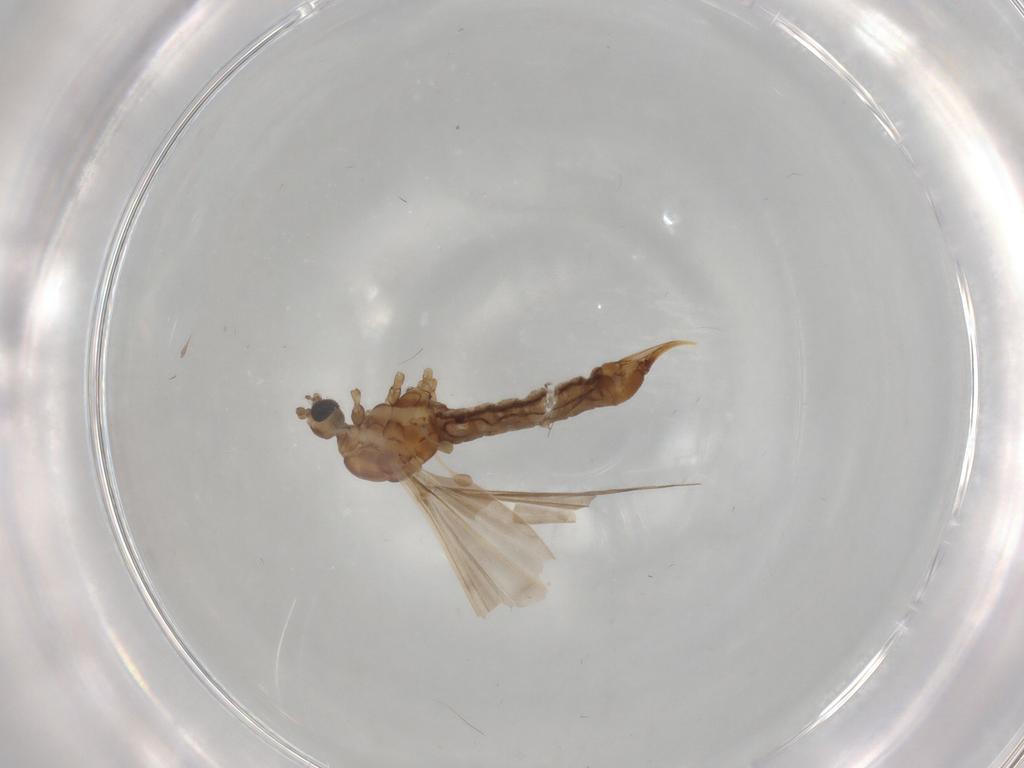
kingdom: Animalia
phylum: Arthropoda
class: Insecta
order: Diptera
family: Limoniidae
